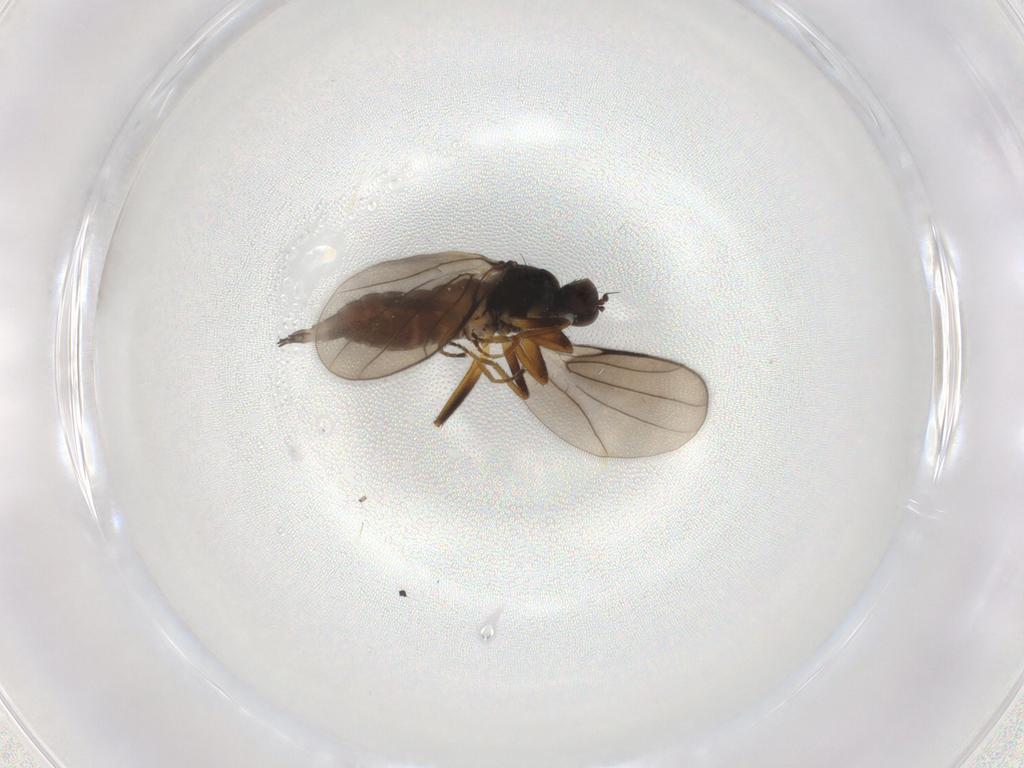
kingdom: Animalia
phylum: Arthropoda
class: Insecta
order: Diptera
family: Hybotidae
